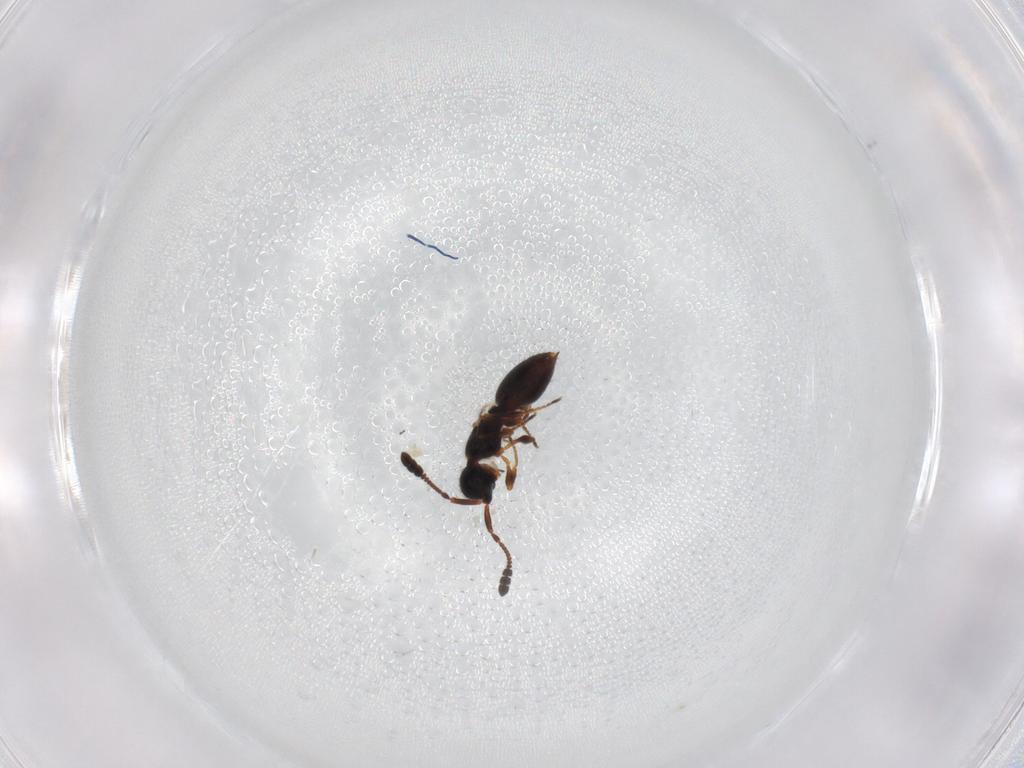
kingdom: Animalia
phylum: Arthropoda
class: Insecta
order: Hymenoptera
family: Diapriidae
